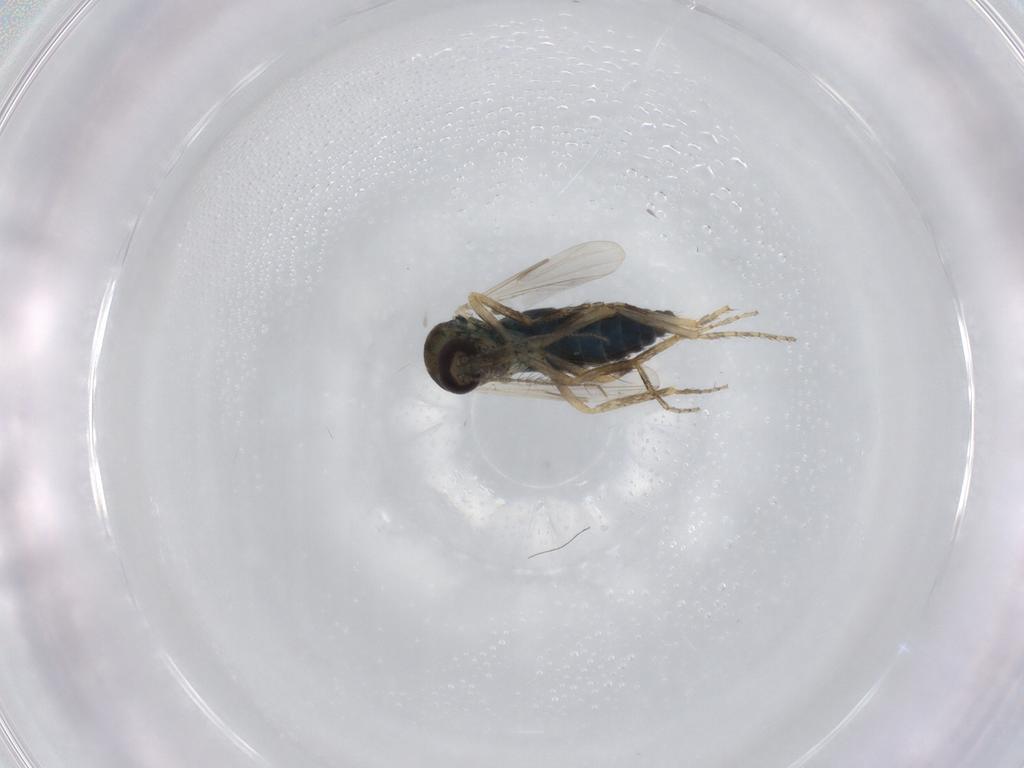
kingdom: Animalia
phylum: Arthropoda
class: Insecta
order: Diptera
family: Ceratopogonidae
